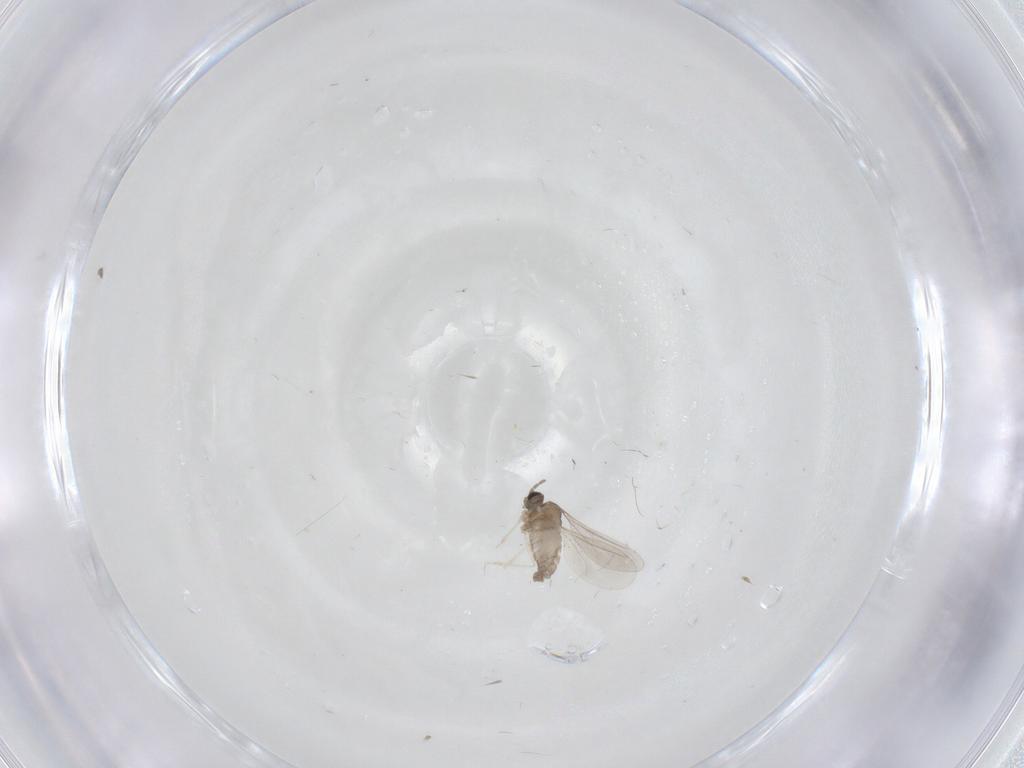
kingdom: Animalia
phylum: Arthropoda
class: Insecta
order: Diptera
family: Cecidomyiidae
